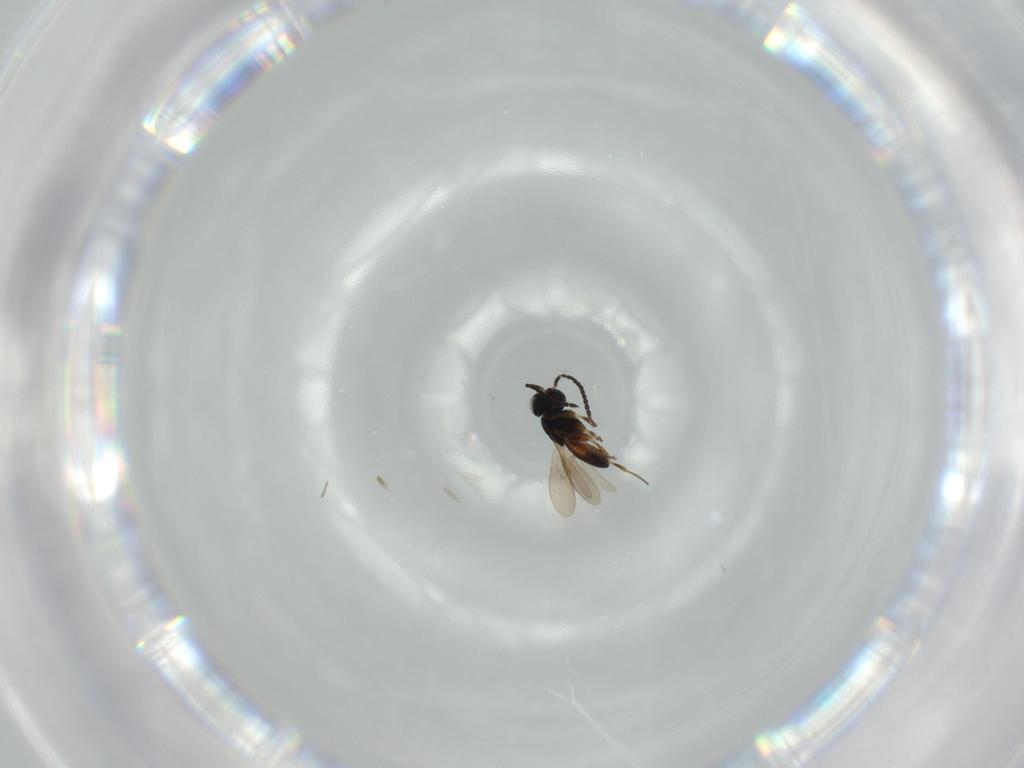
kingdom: Animalia
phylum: Arthropoda
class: Insecta
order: Hymenoptera
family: Scelionidae
